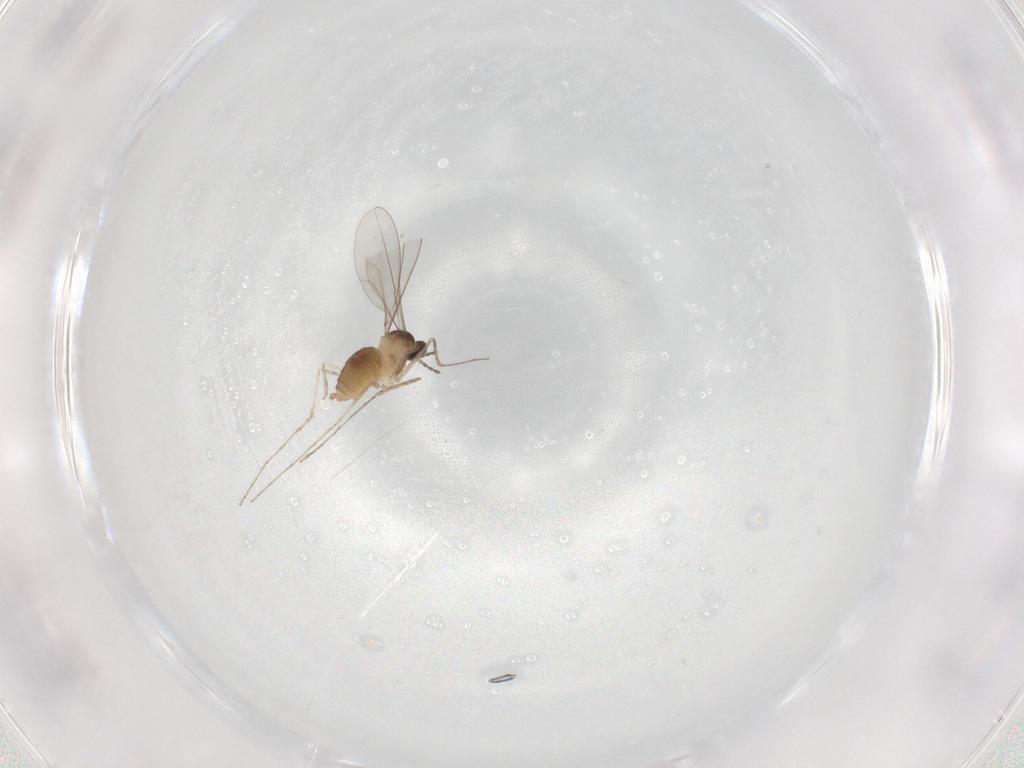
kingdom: Animalia
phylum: Arthropoda
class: Insecta
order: Diptera
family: Cecidomyiidae
